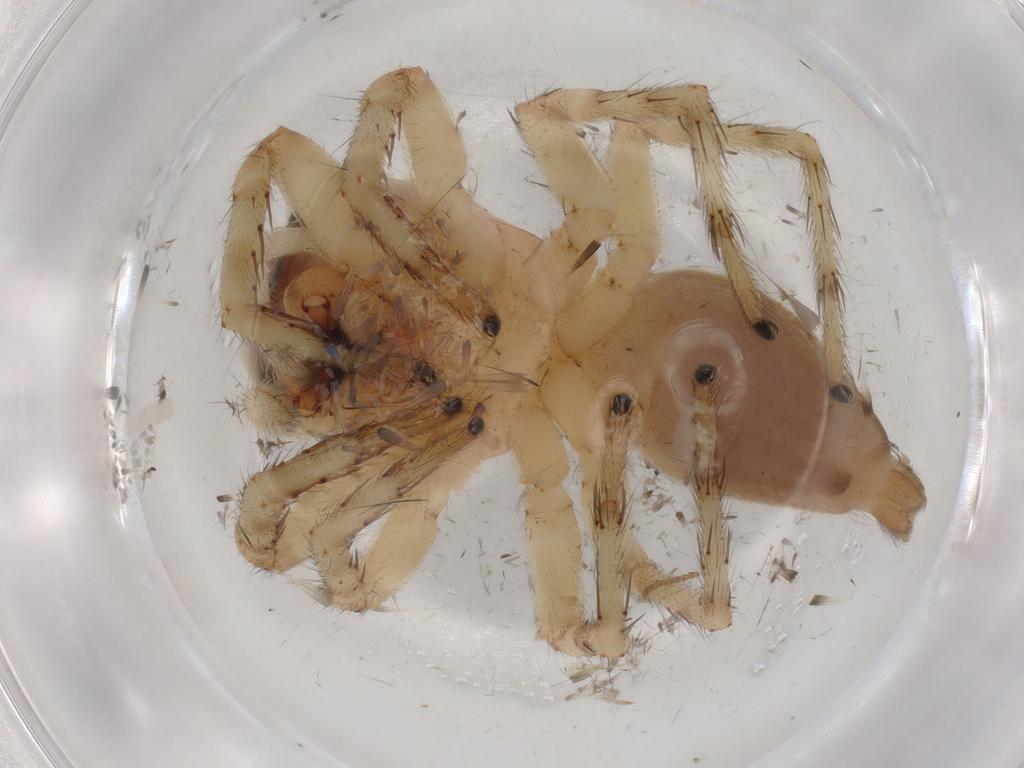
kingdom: Animalia
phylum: Arthropoda
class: Arachnida
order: Araneae
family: Salticidae
